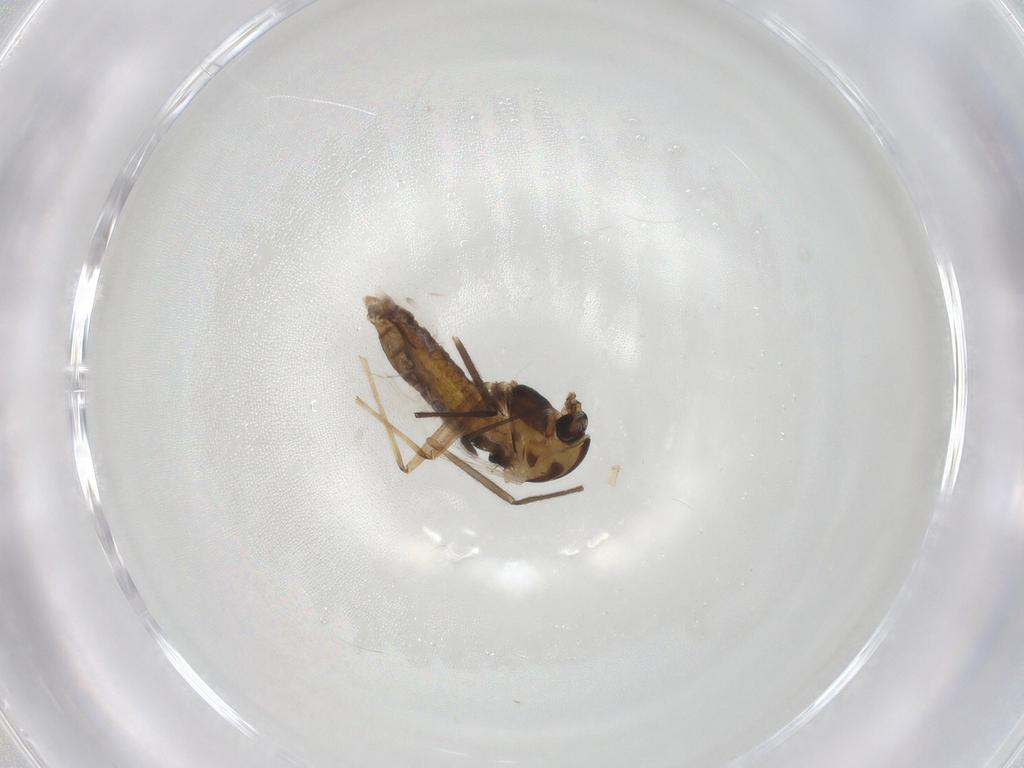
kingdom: Animalia
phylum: Arthropoda
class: Insecta
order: Diptera
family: Chironomidae
